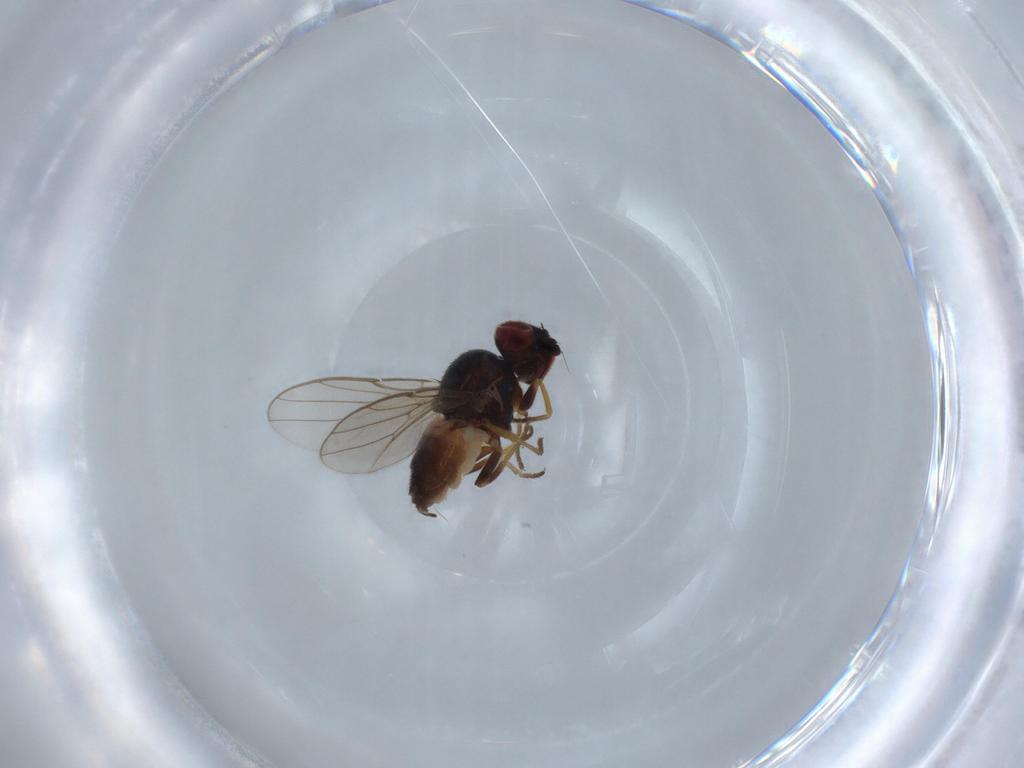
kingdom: Animalia
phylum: Arthropoda
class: Insecta
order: Diptera
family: Chloropidae
